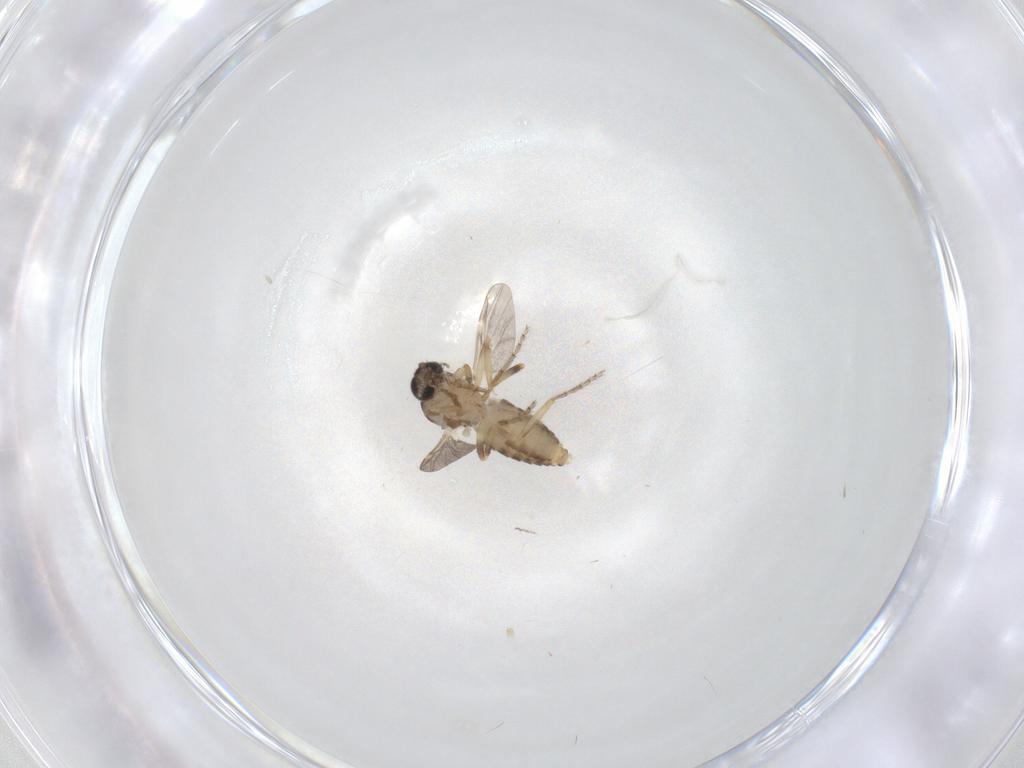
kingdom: Animalia
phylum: Arthropoda
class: Insecta
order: Diptera
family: Ceratopogonidae
